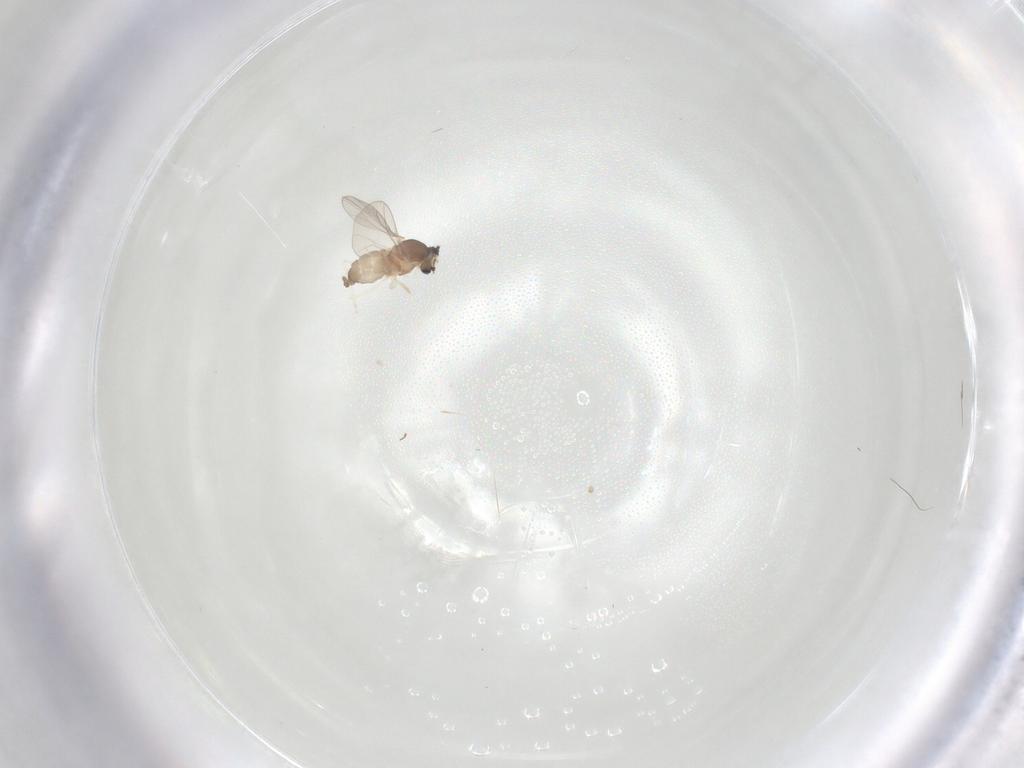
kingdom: Animalia
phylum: Arthropoda
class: Insecta
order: Diptera
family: Cecidomyiidae
